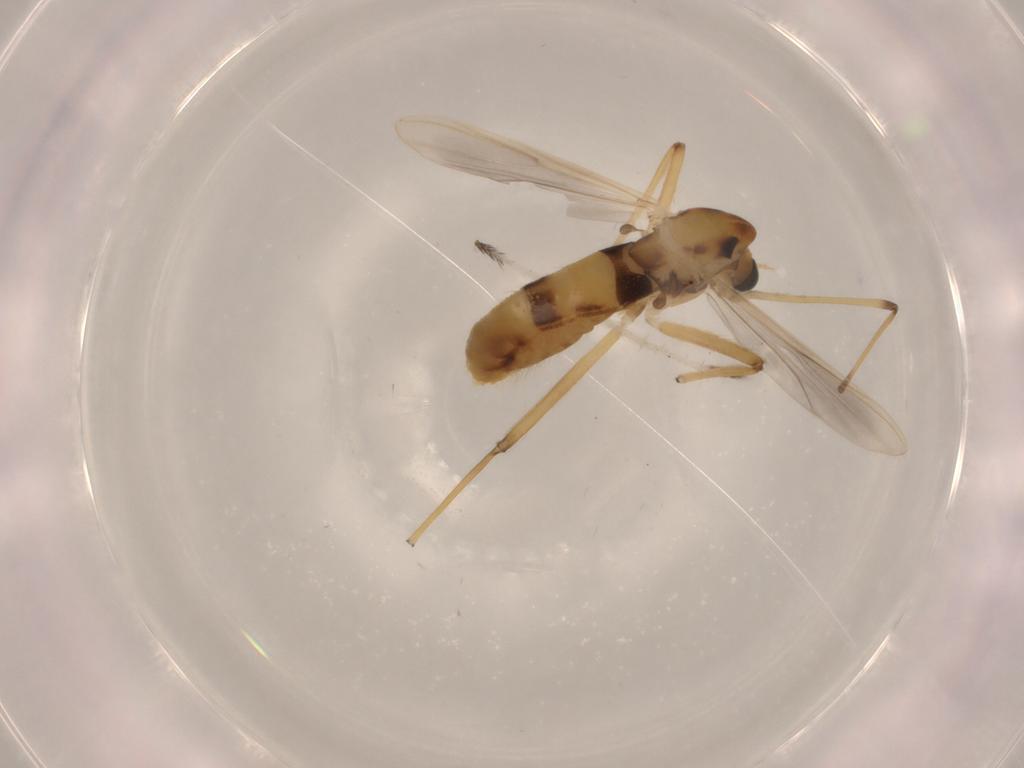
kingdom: Animalia
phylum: Arthropoda
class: Insecta
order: Diptera
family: Chironomidae
